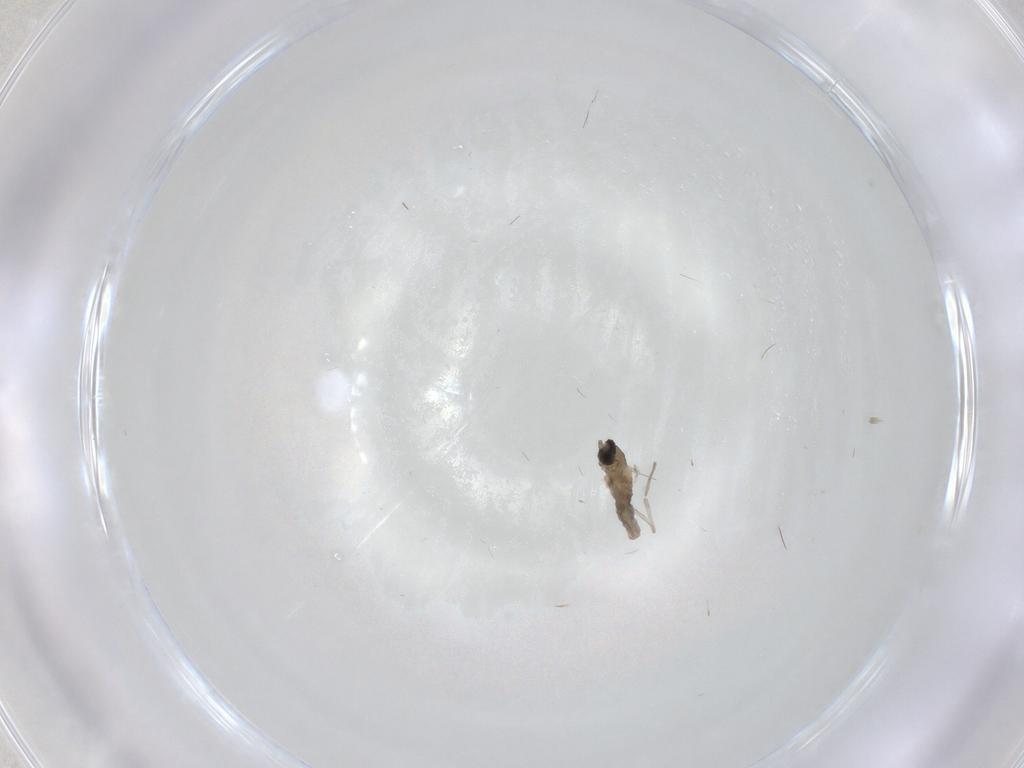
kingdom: Animalia
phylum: Arthropoda
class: Insecta
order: Diptera
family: Cecidomyiidae
